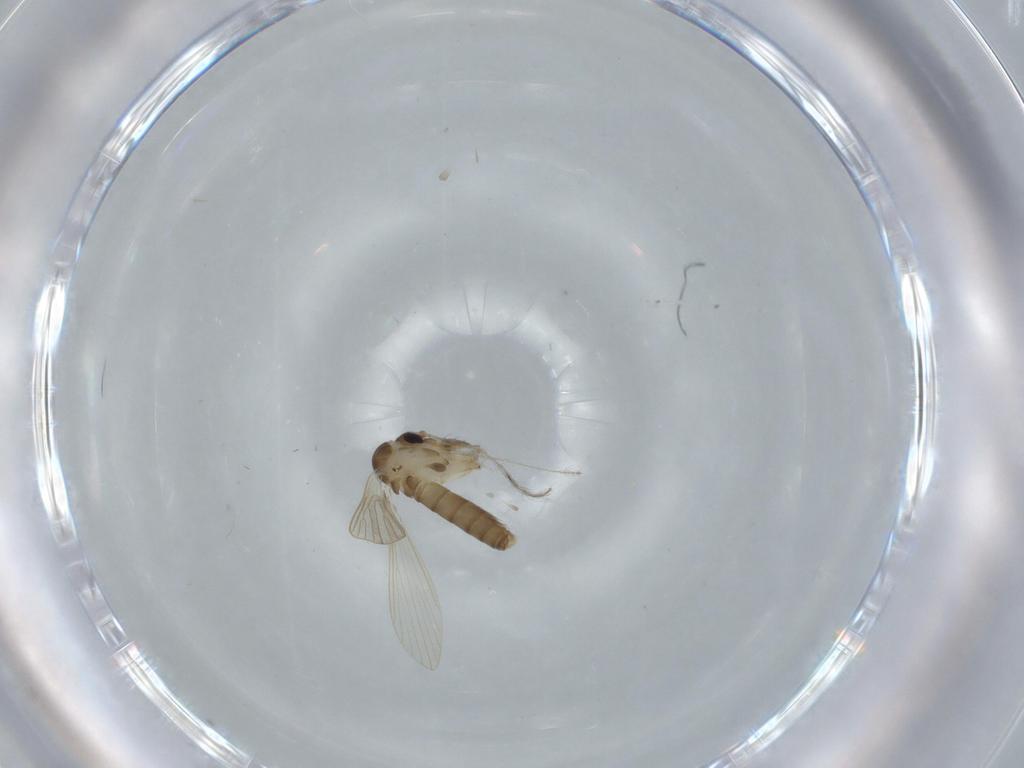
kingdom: Animalia
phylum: Arthropoda
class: Insecta
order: Diptera
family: Psychodidae
